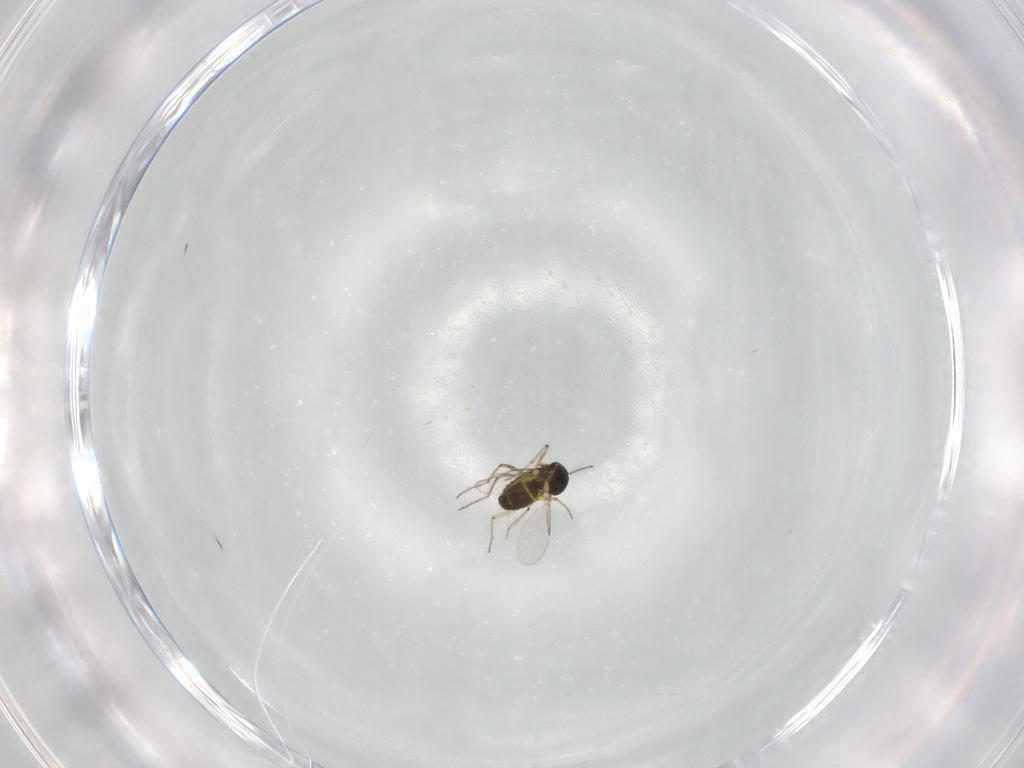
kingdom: Animalia
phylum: Arthropoda
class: Insecta
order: Diptera
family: Ceratopogonidae
